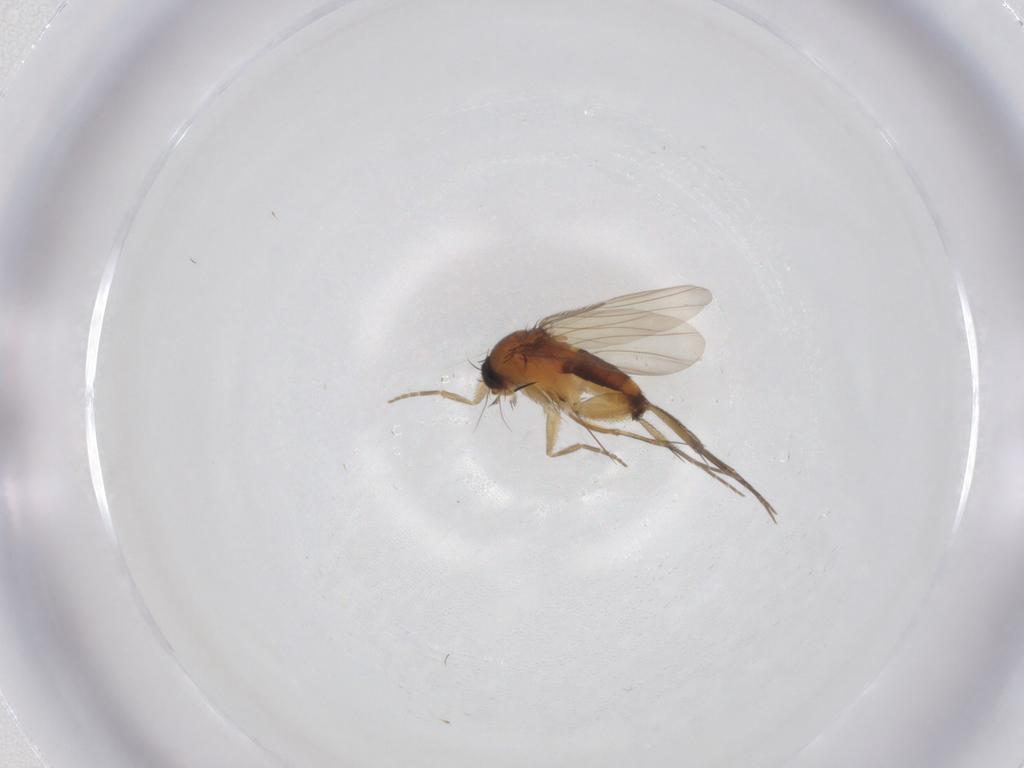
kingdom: Animalia
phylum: Arthropoda
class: Insecta
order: Diptera
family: Phoridae
